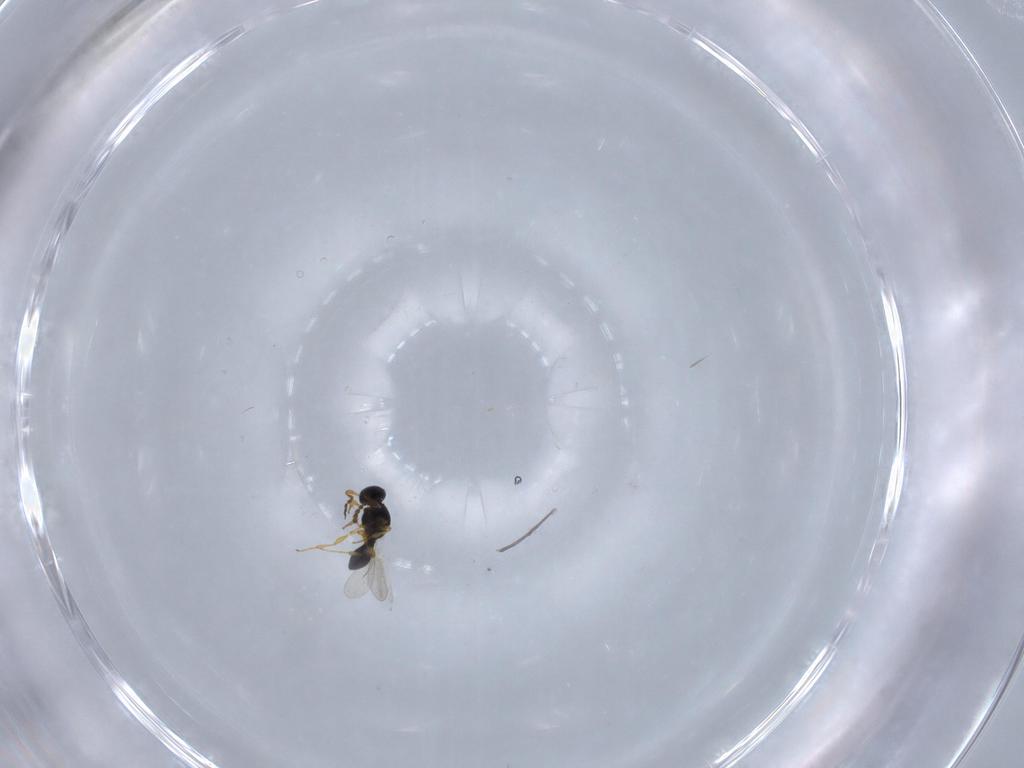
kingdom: Animalia
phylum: Arthropoda
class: Insecta
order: Hymenoptera
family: Platygastridae
